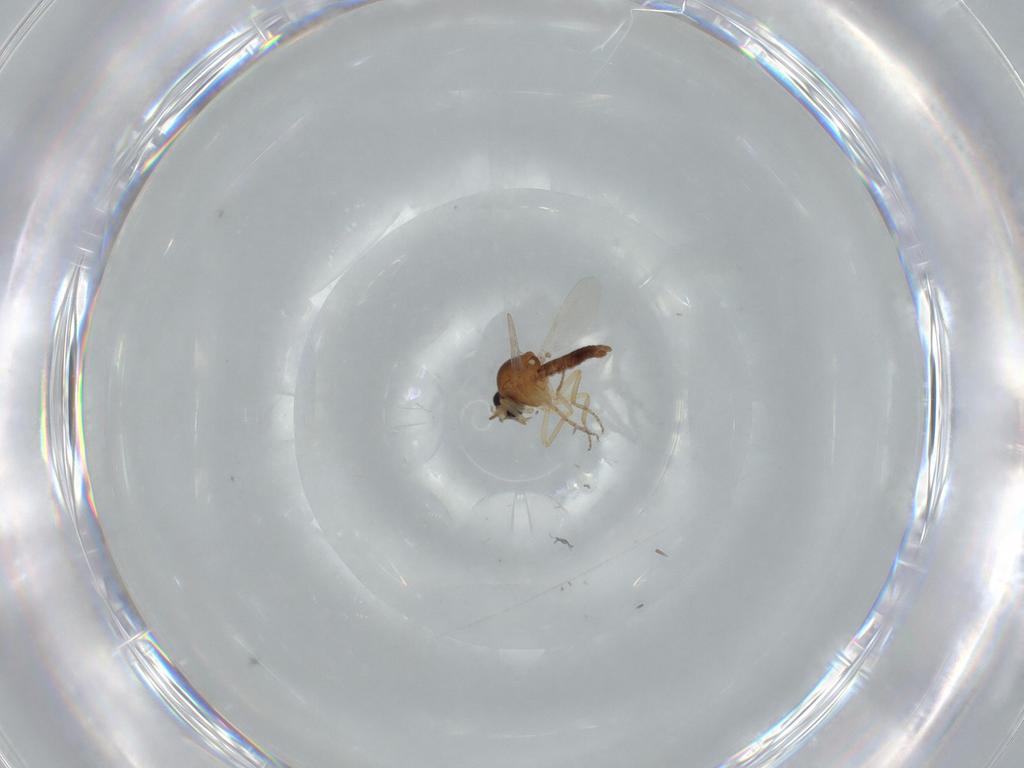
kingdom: Animalia
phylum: Arthropoda
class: Insecta
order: Diptera
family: Ceratopogonidae
